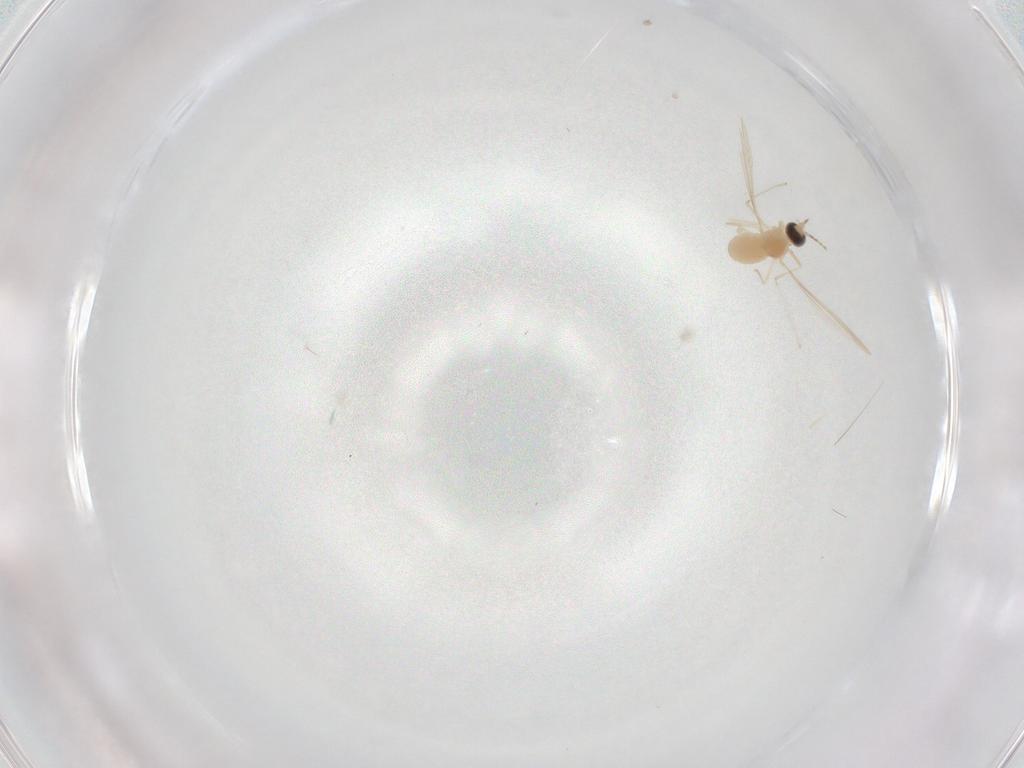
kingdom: Animalia
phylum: Arthropoda
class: Insecta
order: Diptera
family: Cecidomyiidae
